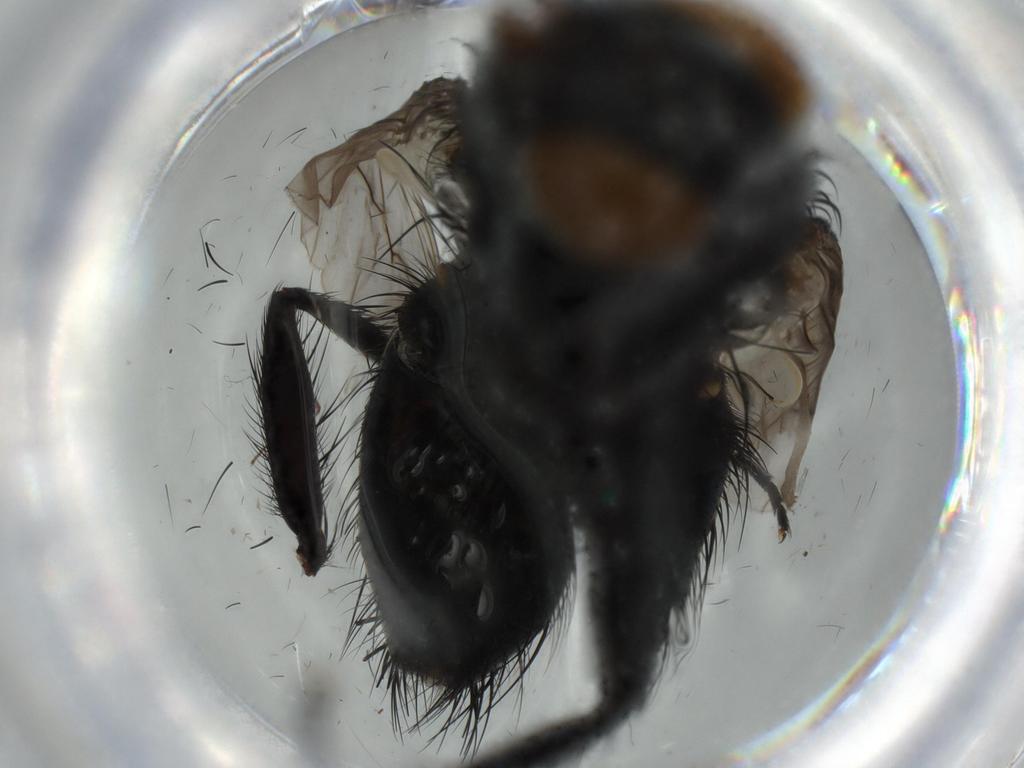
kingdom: Animalia
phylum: Arthropoda
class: Insecta
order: Diptera
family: Tachinidae
